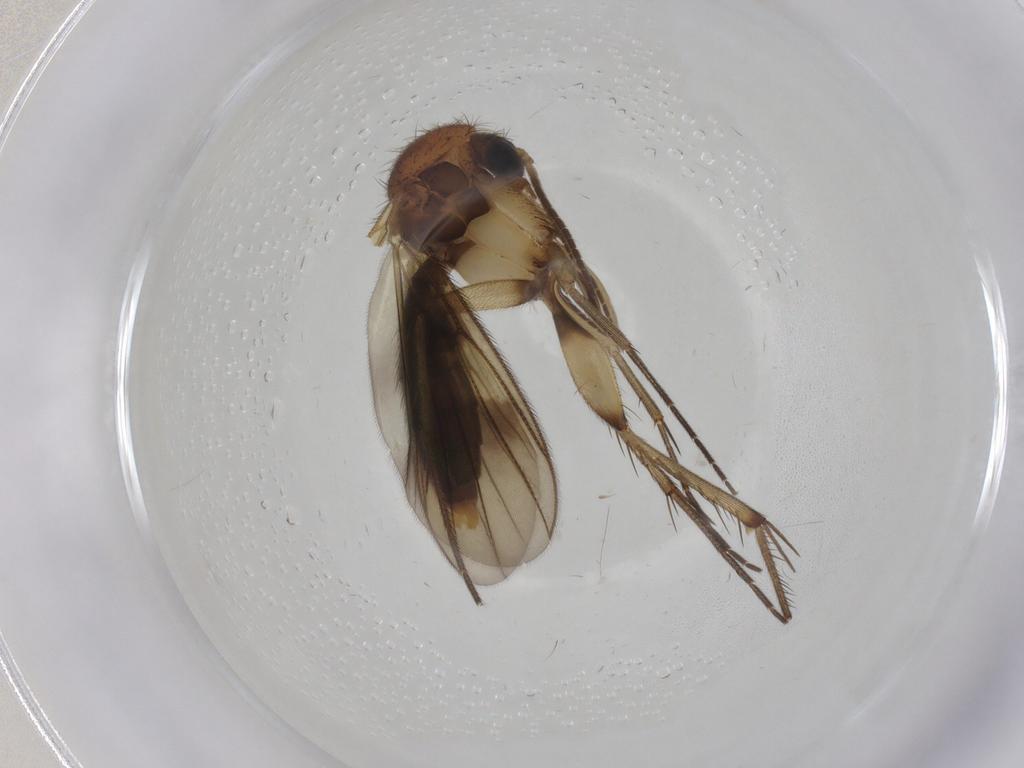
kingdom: Animalia
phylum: Arthropoda
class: Insecta
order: Diptera
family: Mycetophilidae
